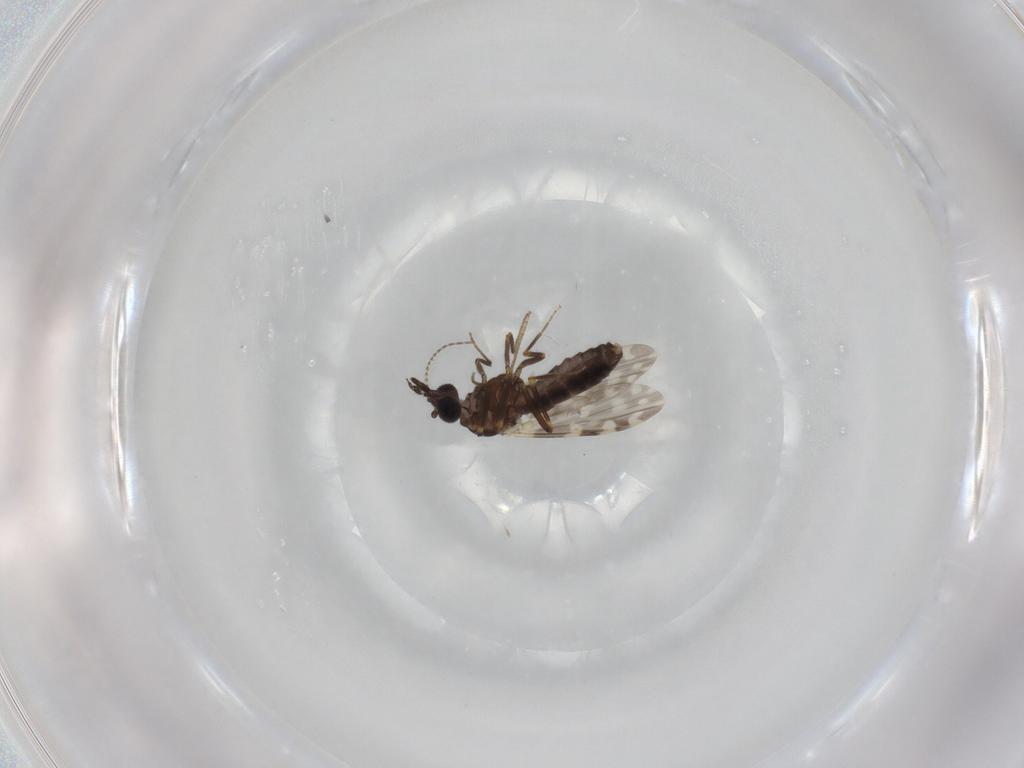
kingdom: Animalia
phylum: Arthropoda
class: Insecta
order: Diptera
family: Ceratopogonidae
